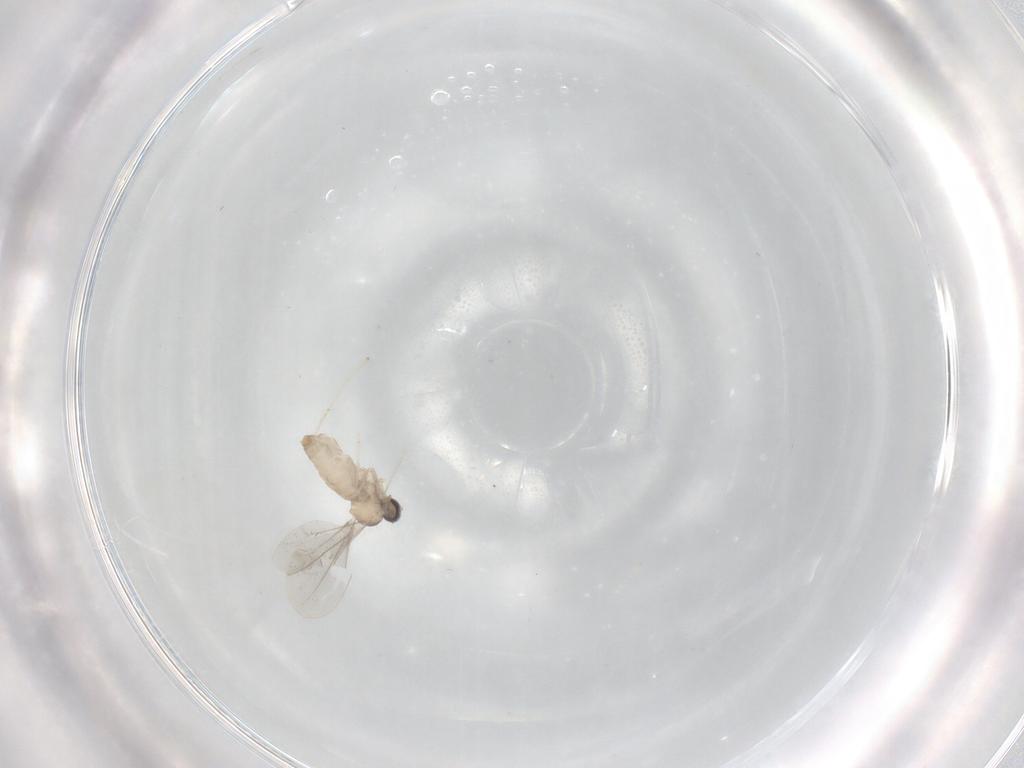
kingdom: Animalia
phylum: Arthropoda
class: Insecta
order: Diptera
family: Cecidomyiidae
